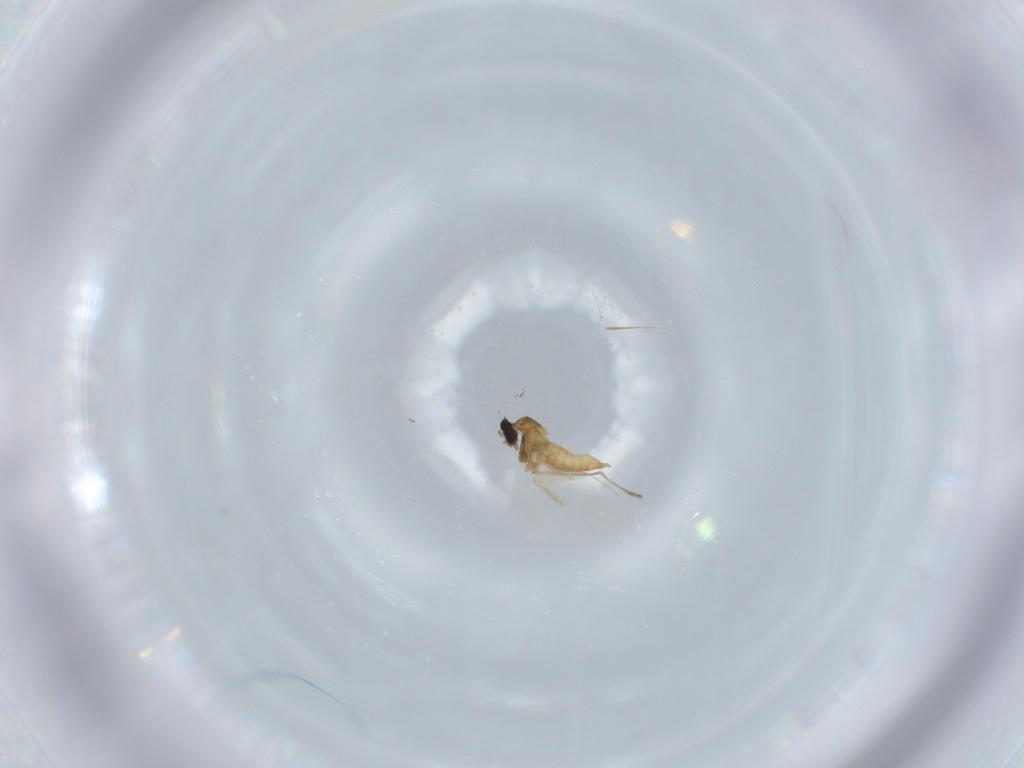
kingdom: Animalia
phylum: Arthropoda
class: Insecta
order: Diptera
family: Cecidomyiidae
